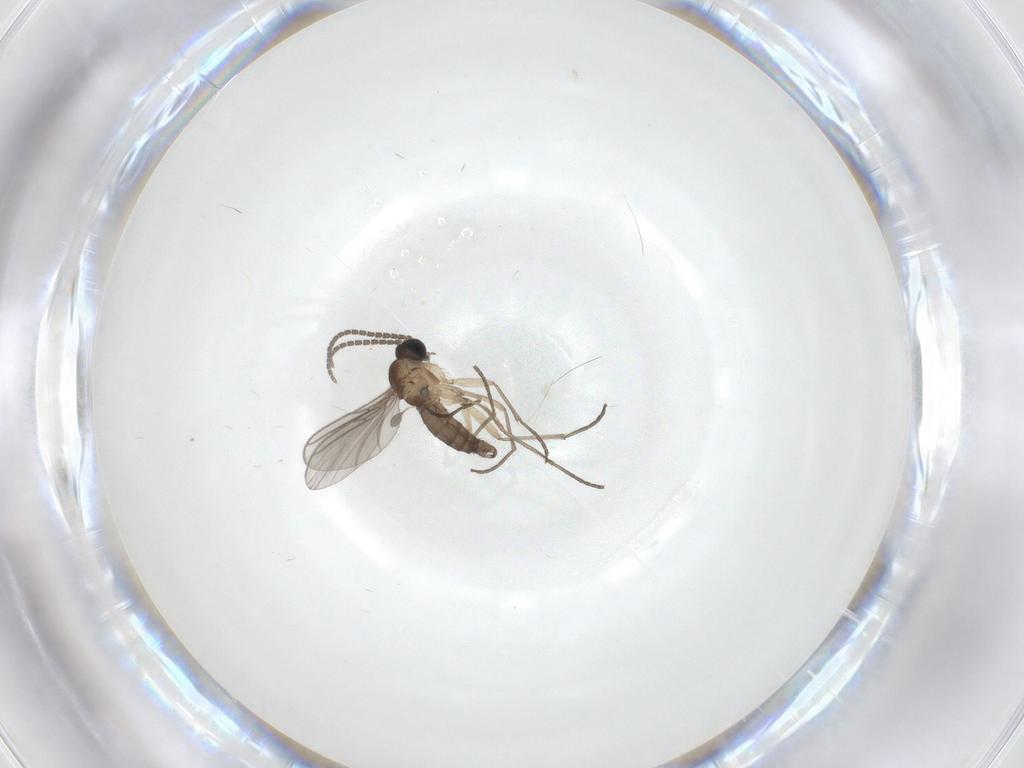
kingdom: Animalia
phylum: Arthropoda
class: Insecta
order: Diptera
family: Sciaridae
